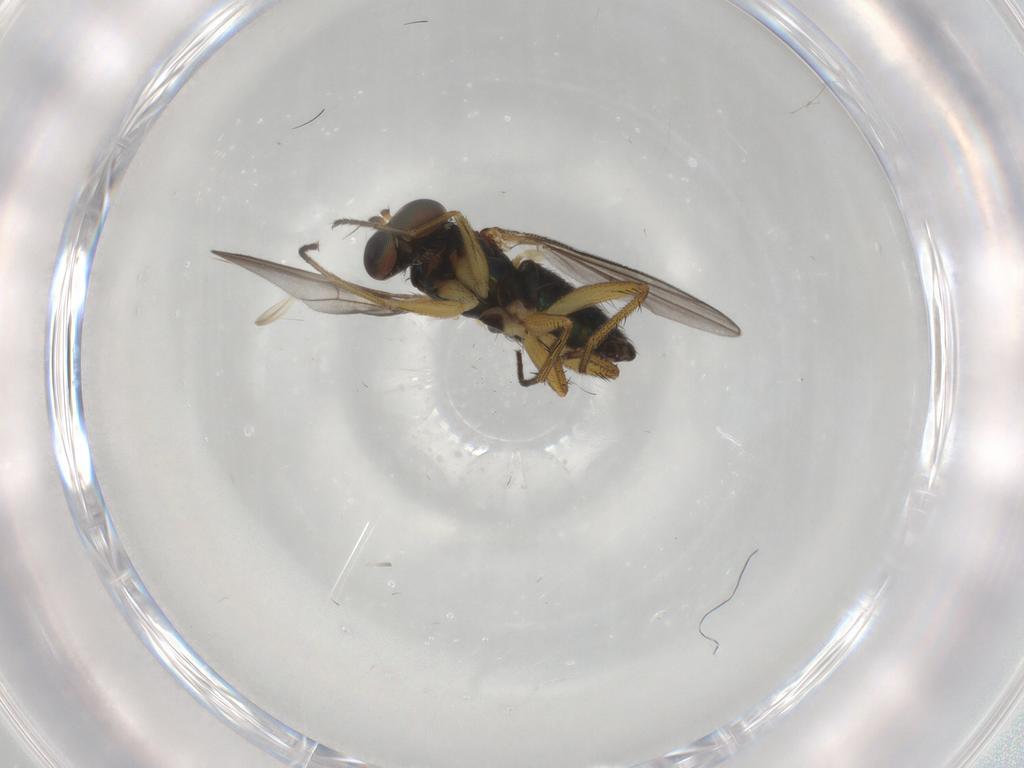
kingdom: Animalia
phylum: Arthropoda
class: Insecta
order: Diptera
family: Dolichopodidae
